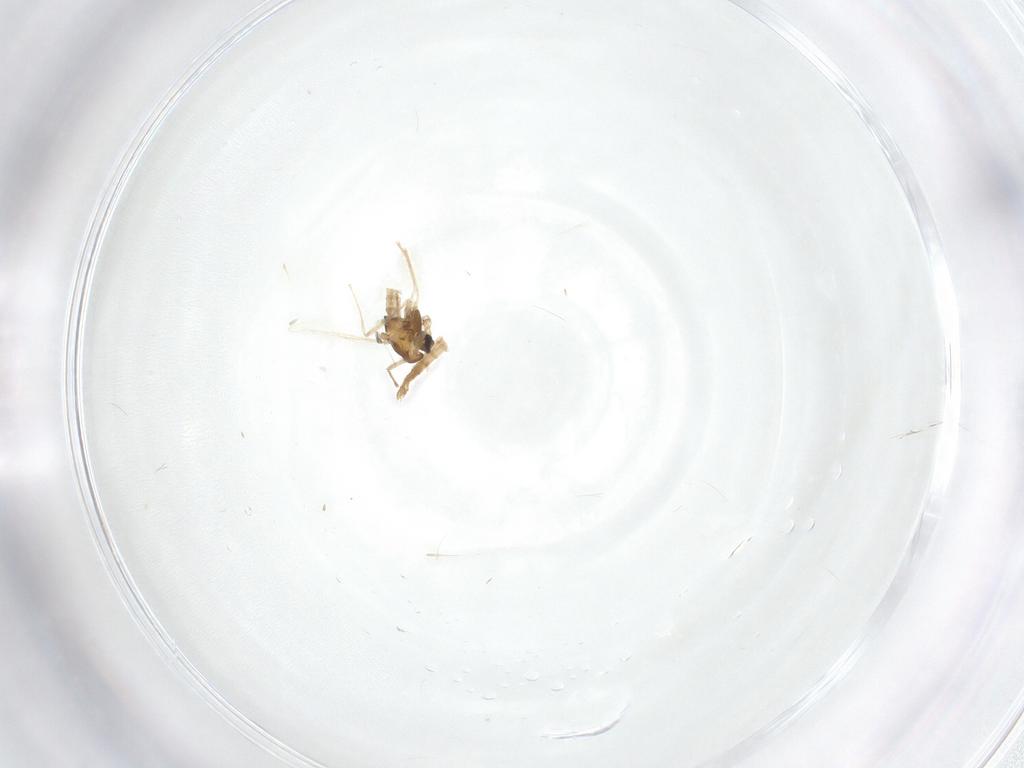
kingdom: Animalia
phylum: Arthropoda
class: Insecta
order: Diptera
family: Chironomidae
